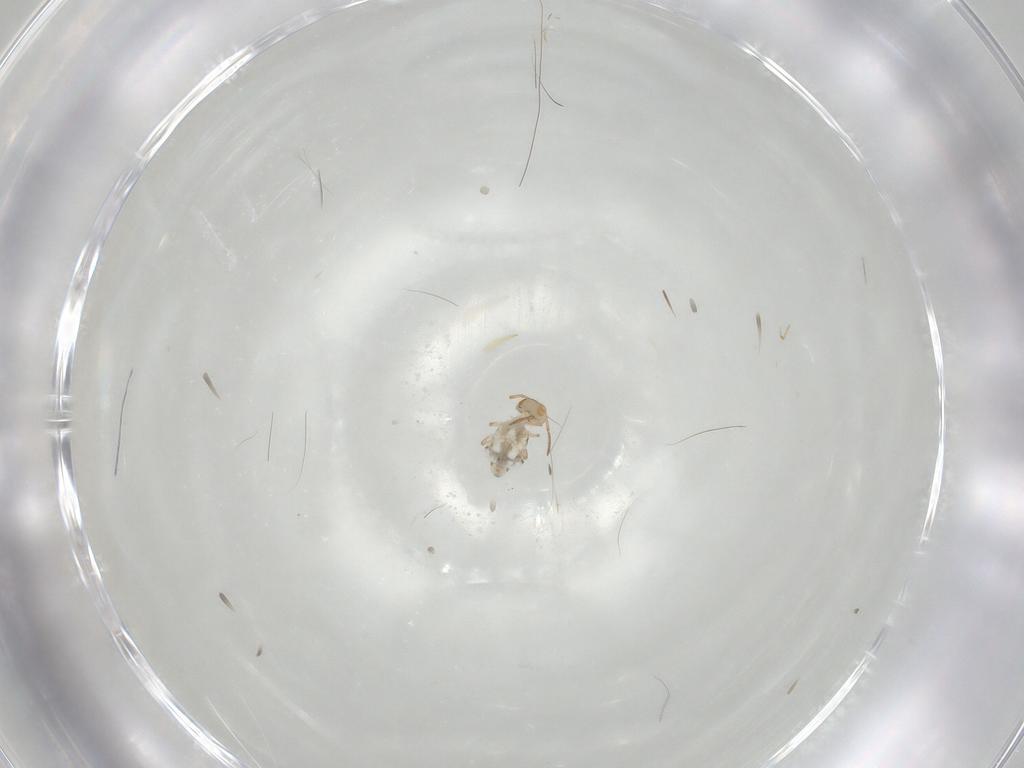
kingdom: Animalia
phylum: Arthropoda
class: Collembola
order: Symphypleona
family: Bourletiellidae
